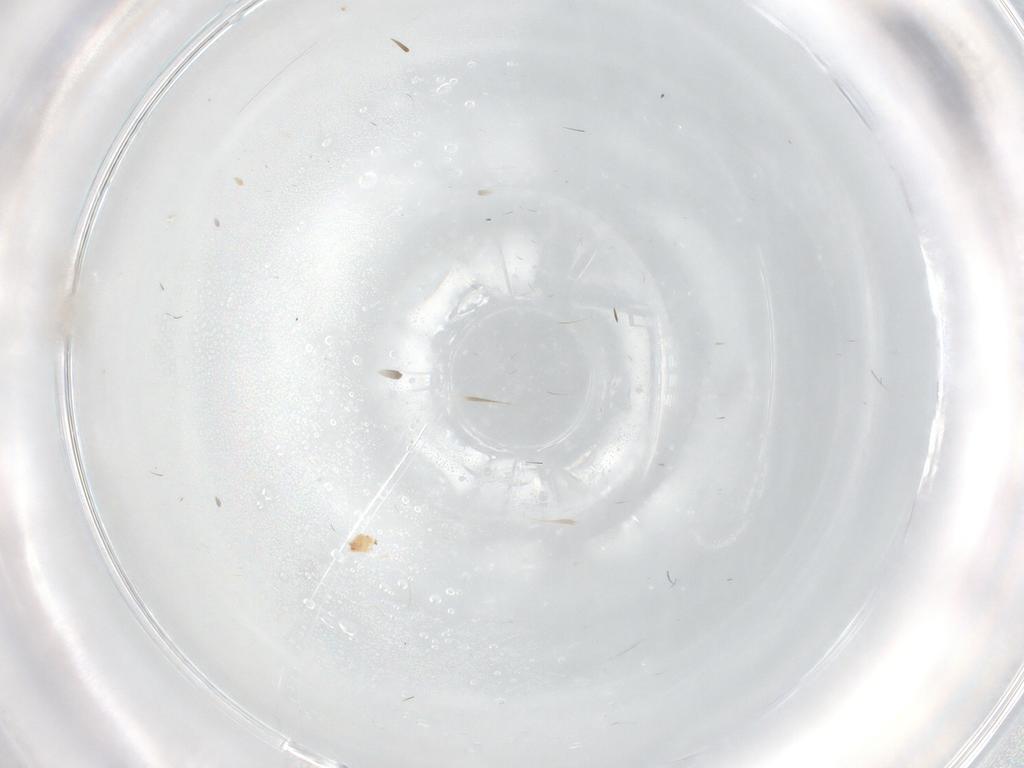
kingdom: Animalia
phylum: Arthropoda
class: Insecta
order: Diptera
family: Cecidomyiidae
